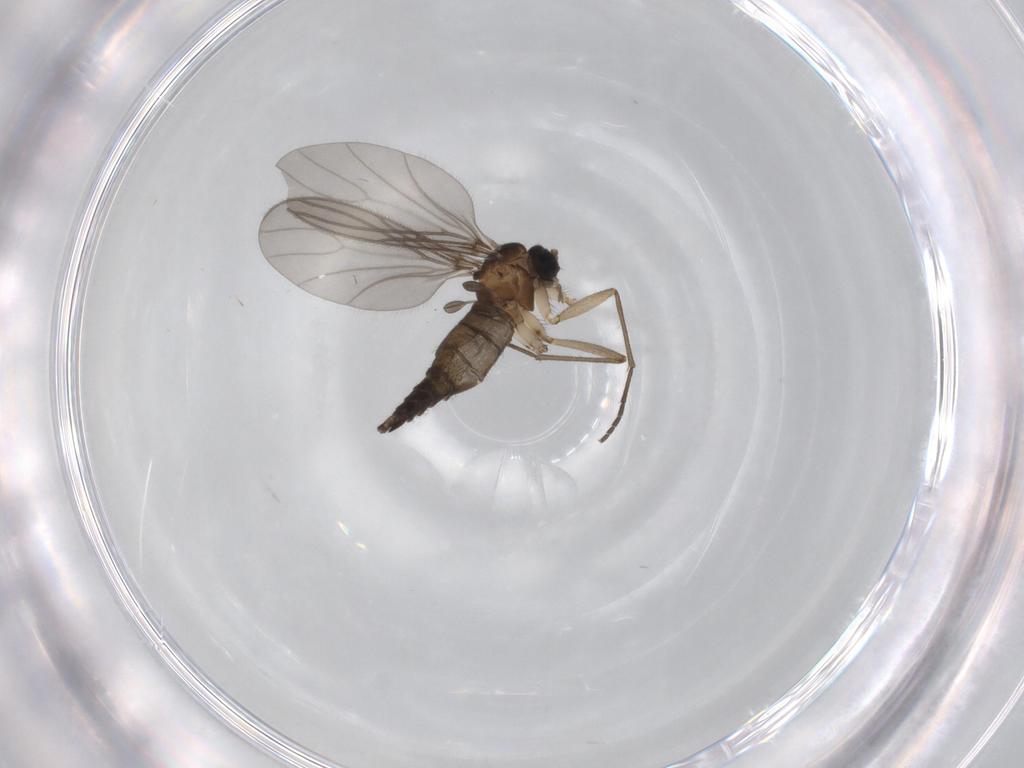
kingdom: Animalia
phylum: Arthropoda
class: Insecta
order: Diptera
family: Sciaridae
